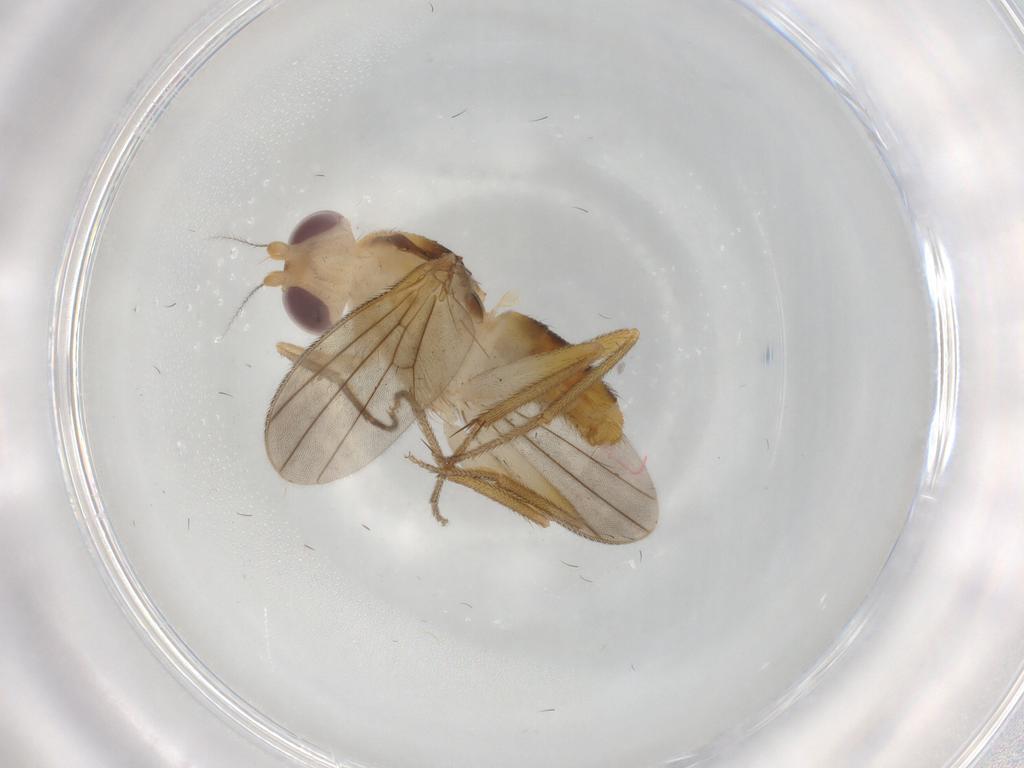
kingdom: Animalia
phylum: Arthropoda
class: Insecta
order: Diptera
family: Clusiidae
